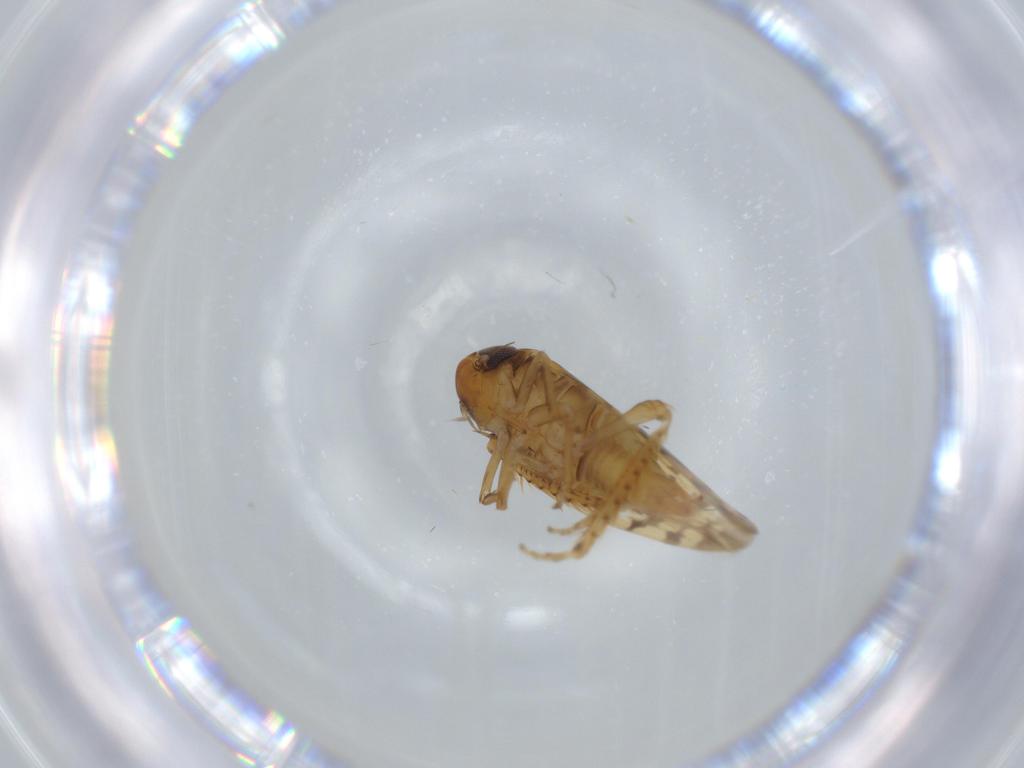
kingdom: Animalia
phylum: Arthropoda
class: Insecta
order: Hemiptera
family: Cicadellidae
